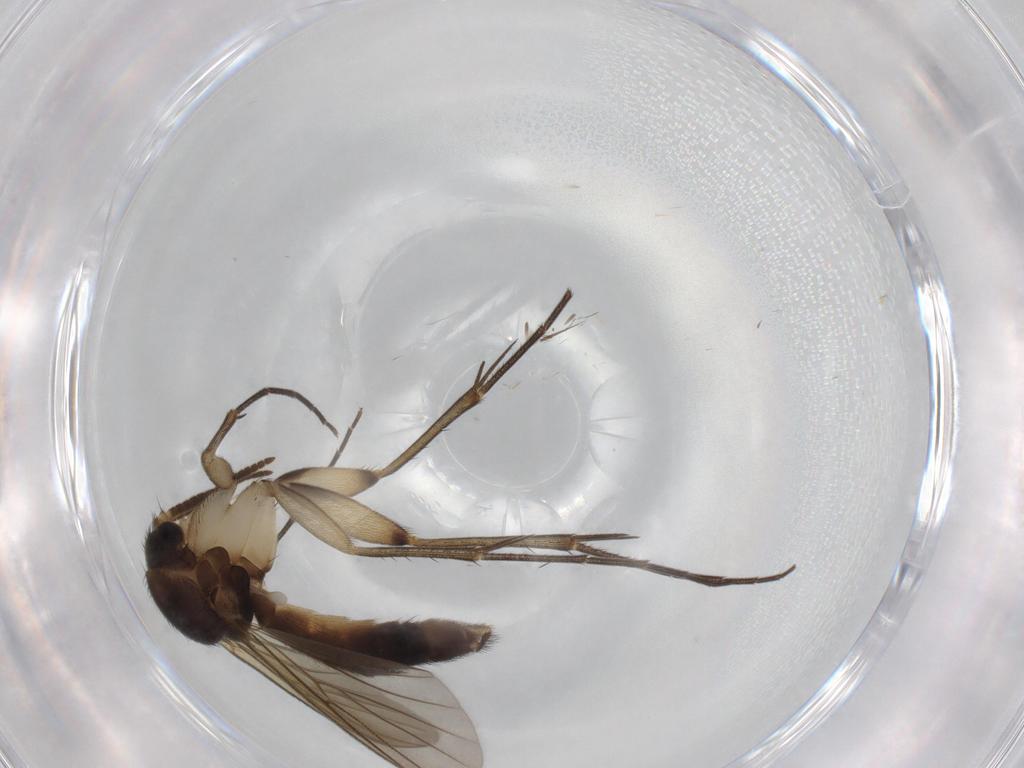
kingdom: Animalia
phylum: Arthropoda
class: Insecta
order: Diptera
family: Mycetophilidae
